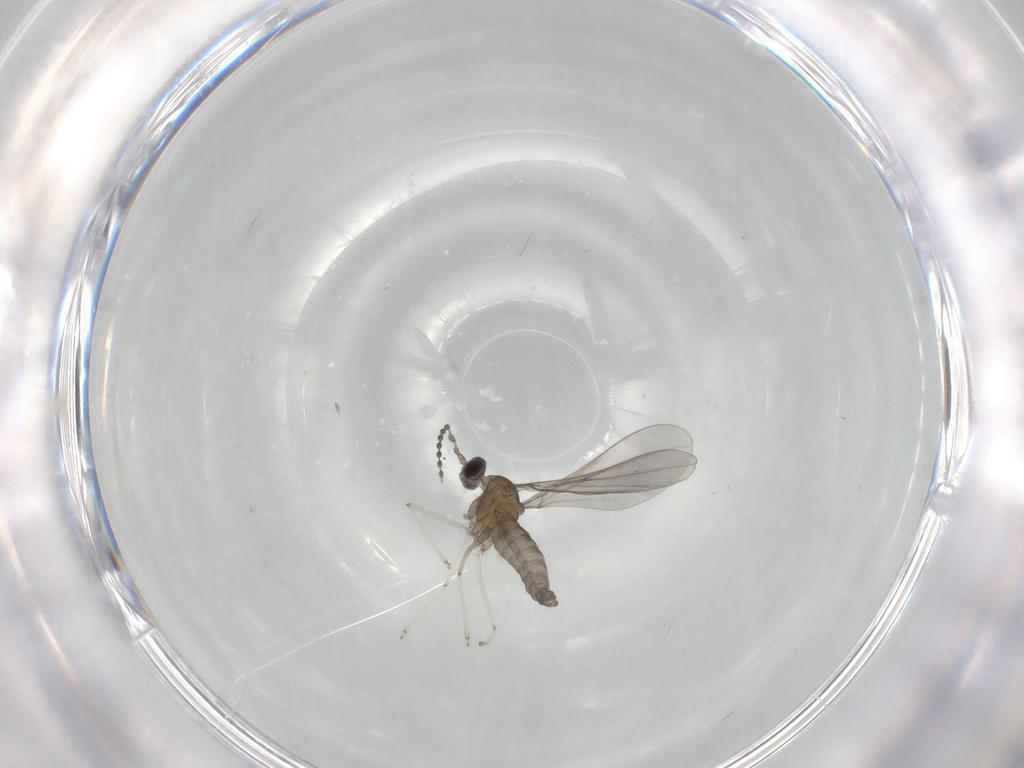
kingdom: Animalia
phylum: Arthropoda
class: Insecta
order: Diptera
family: Cecidomyiidae
